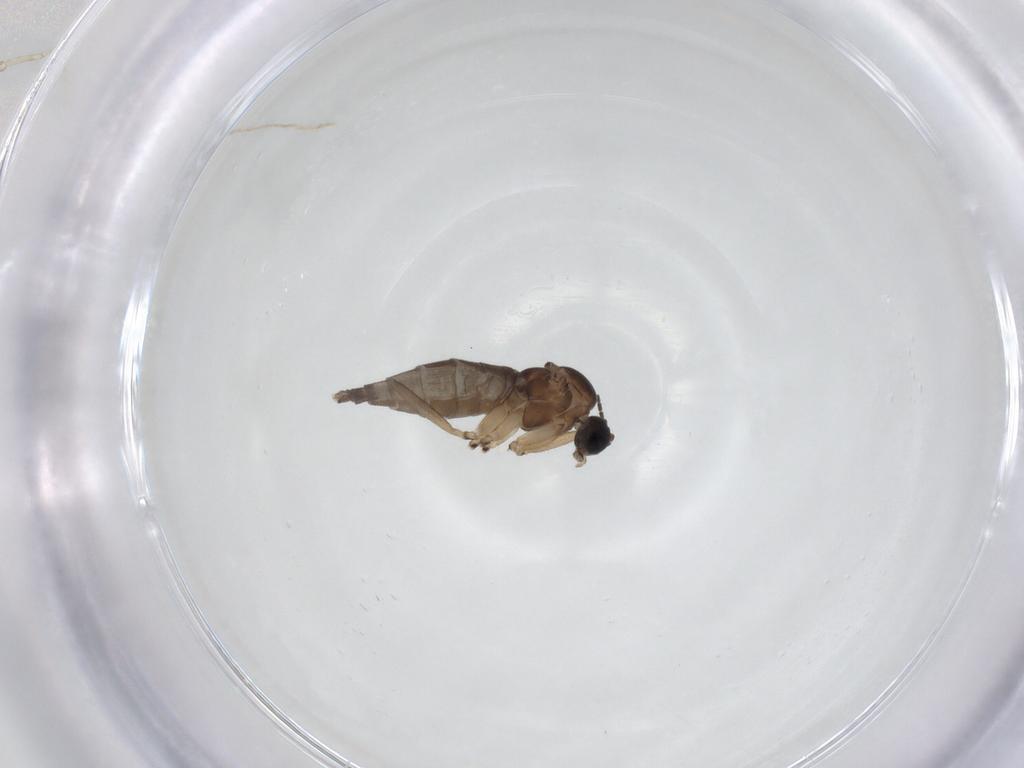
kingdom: Animalia
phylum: Arthropoda
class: Insecta
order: Diptera
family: Sciaridae
